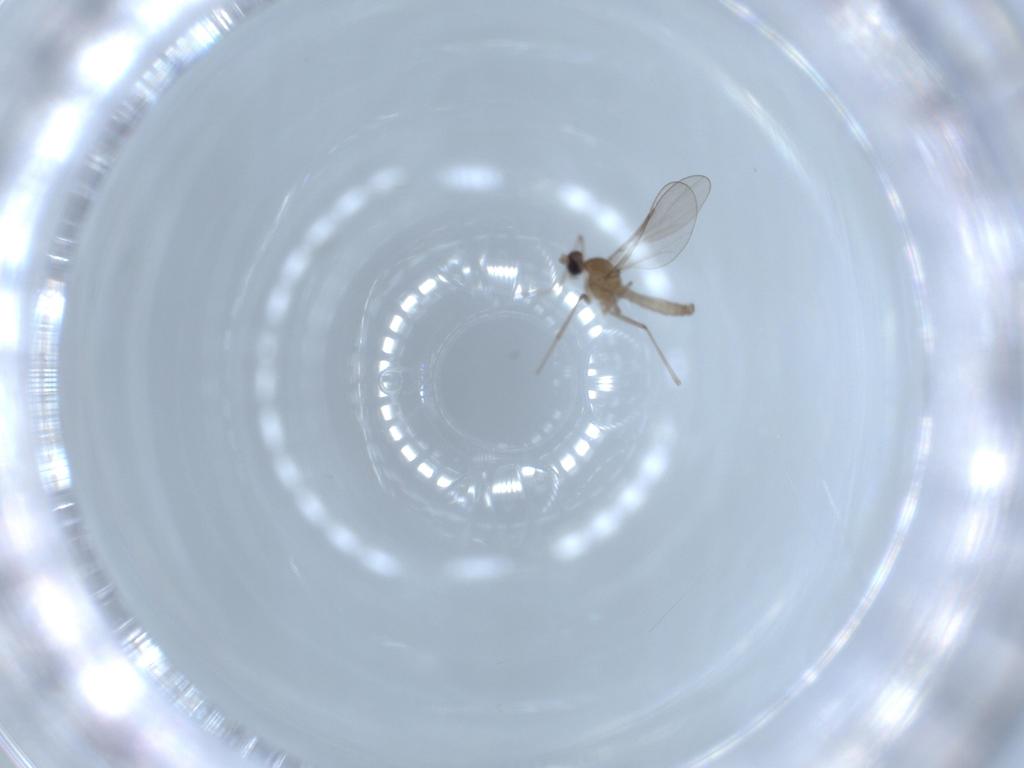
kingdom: Animalia
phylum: Arthropoda
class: Insecta
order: Diptera
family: Cecidomyiidae
